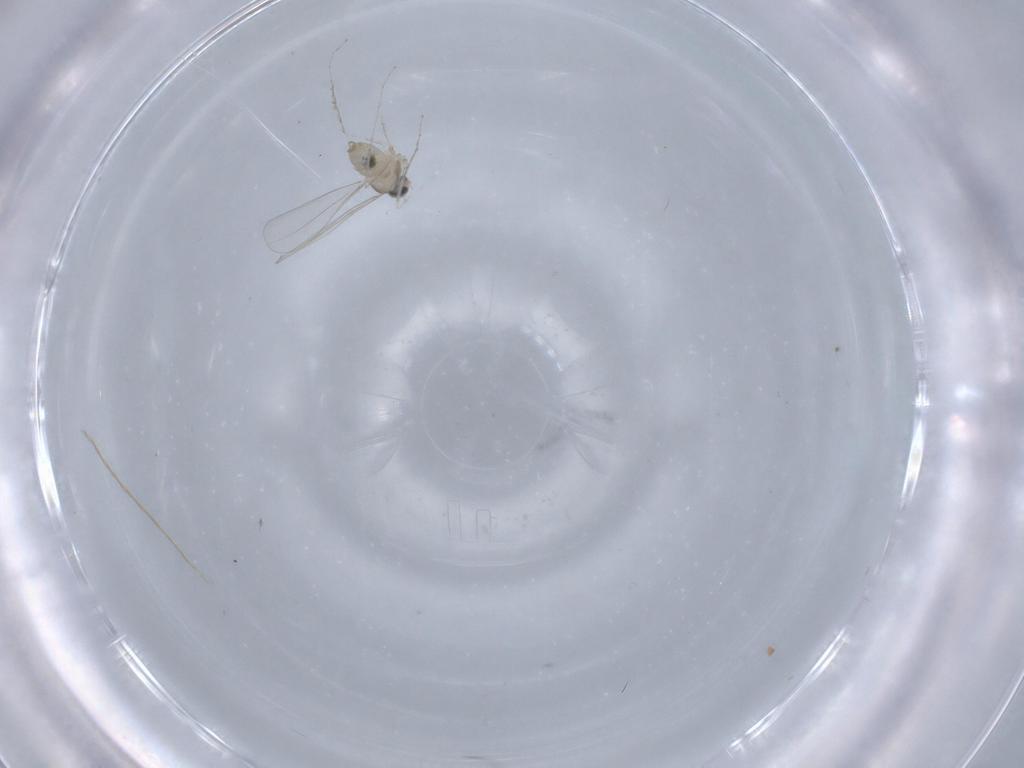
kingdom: Animalia
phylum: Arthropoda
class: Insecta
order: Diptera
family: Cecidomyiidae
